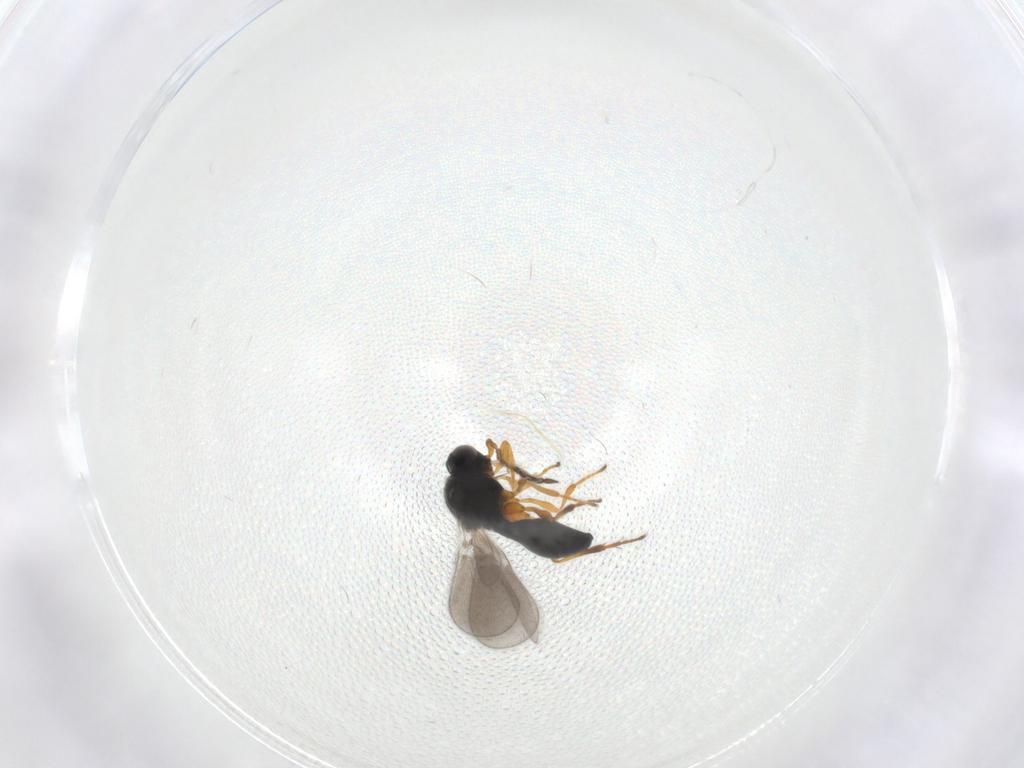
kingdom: Animalia
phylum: Arthropoda
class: Insecta
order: Hymenoptera
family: Platygastridae
